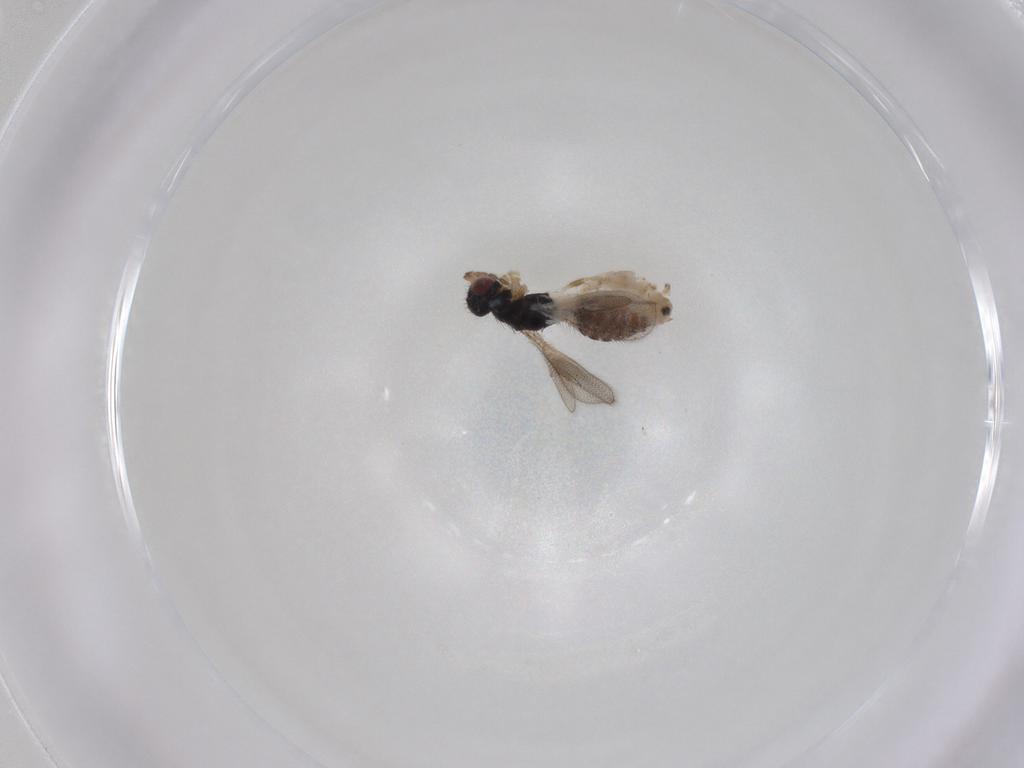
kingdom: Animalia
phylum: Arthropoda
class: Insecta
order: Hymenoptera
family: Eulophidae
